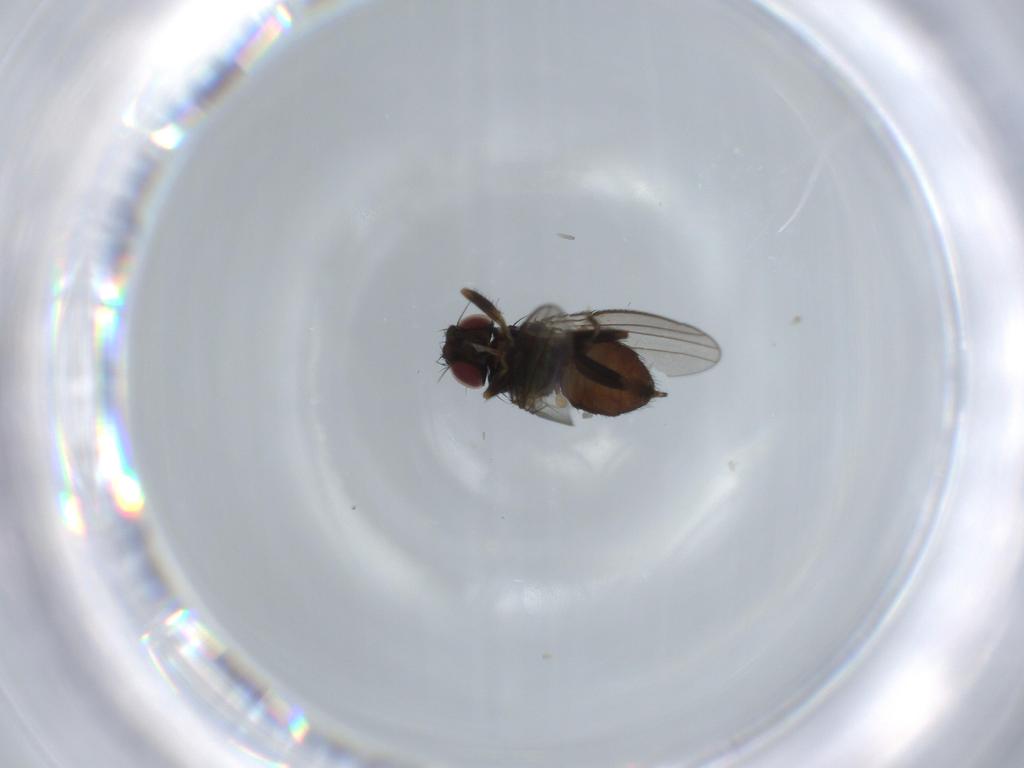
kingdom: Animalia
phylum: Arthropoda
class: Insecta
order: Diptera
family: Milichiidae
